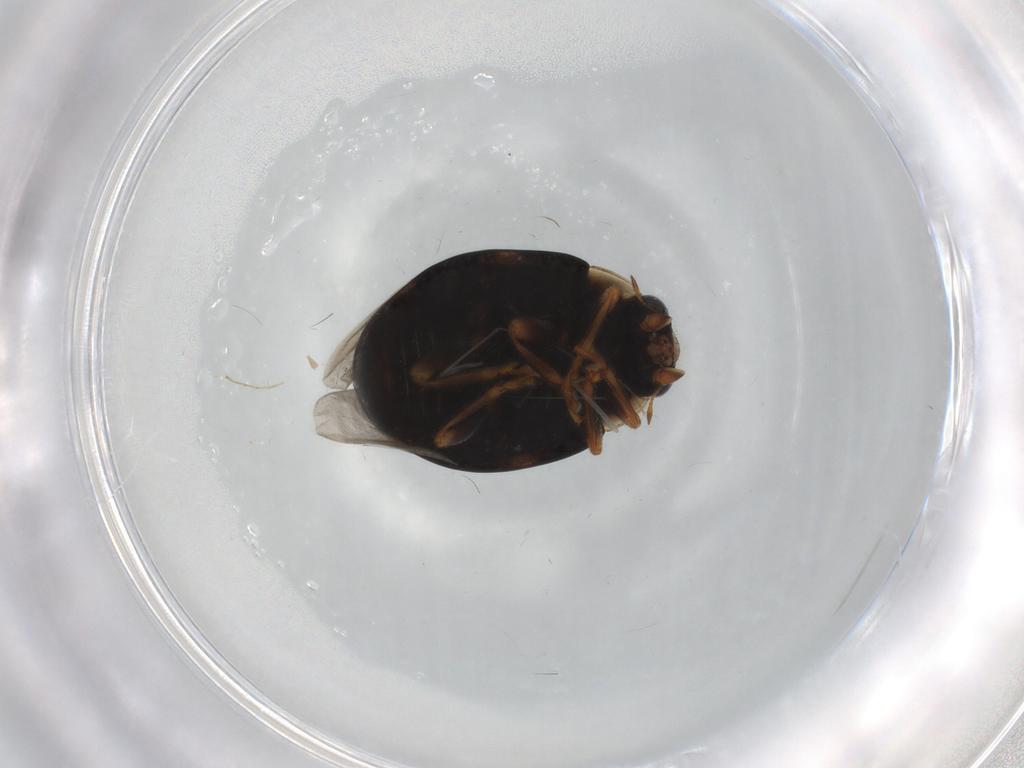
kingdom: Animalia
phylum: Arthropoda
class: Insecta
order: Coleoptera
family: Coccinellidae
